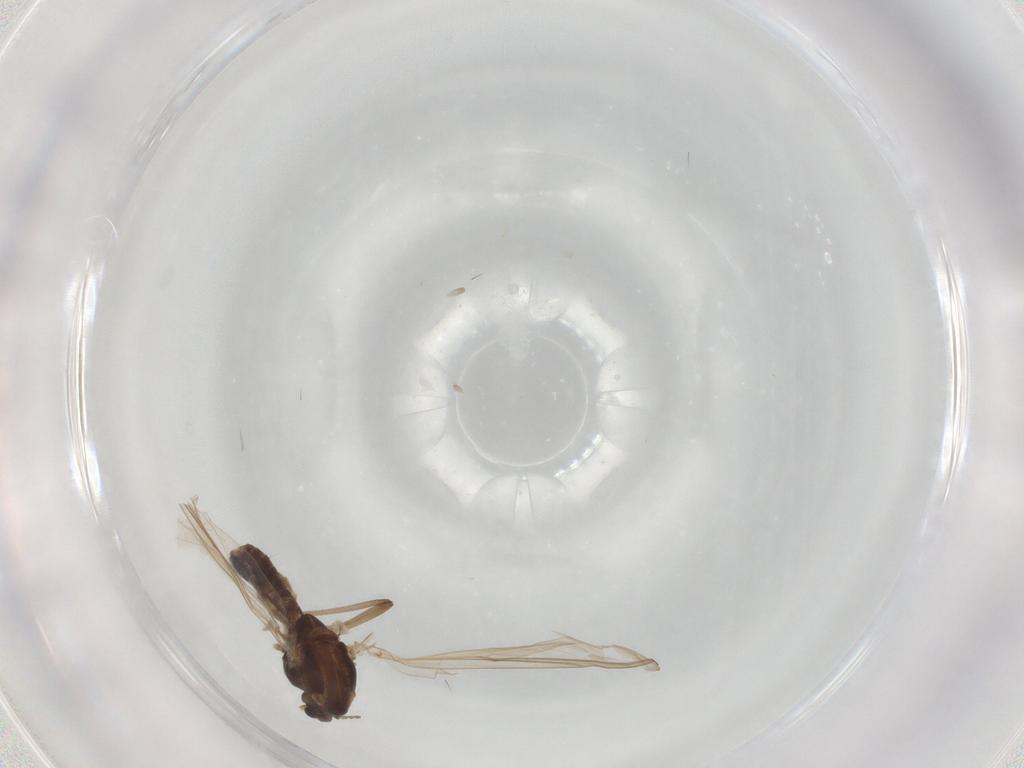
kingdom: Animalia
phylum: Arthropoda
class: Insecta
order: Diptera
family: Chironomidae
